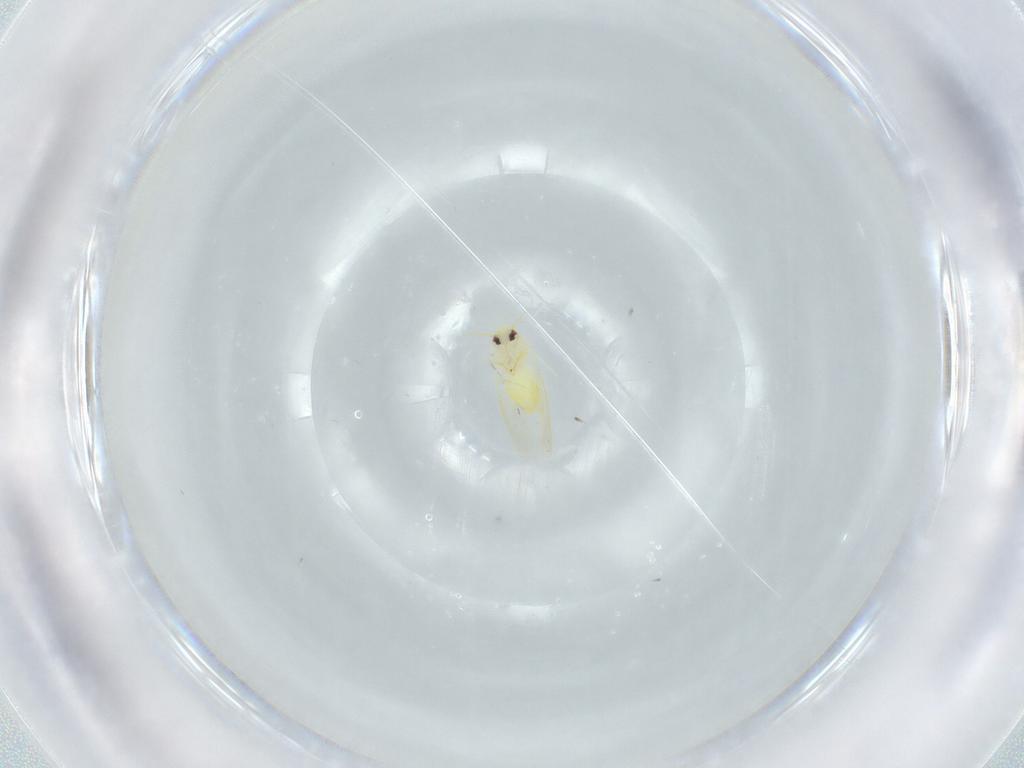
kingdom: Animalia
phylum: Arthropoda
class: Insecta
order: Hemiptera
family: Aleyrodidae
